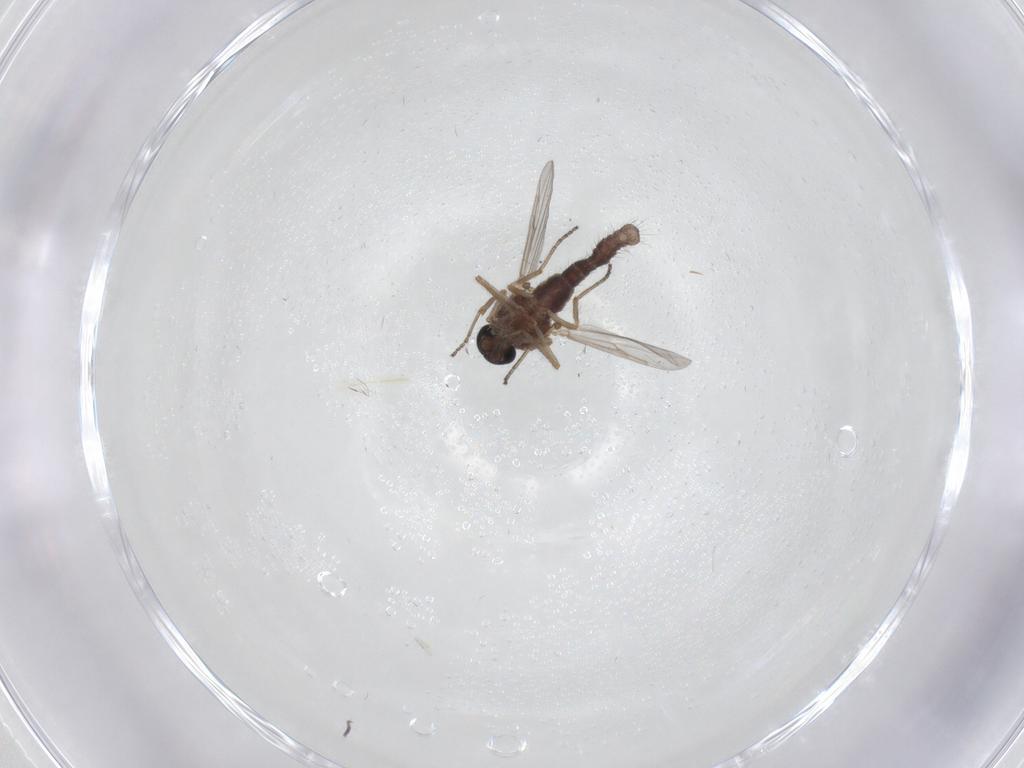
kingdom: Animalia
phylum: Arthropoda
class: Insecta
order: Diptera
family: Ceratopogonidae
